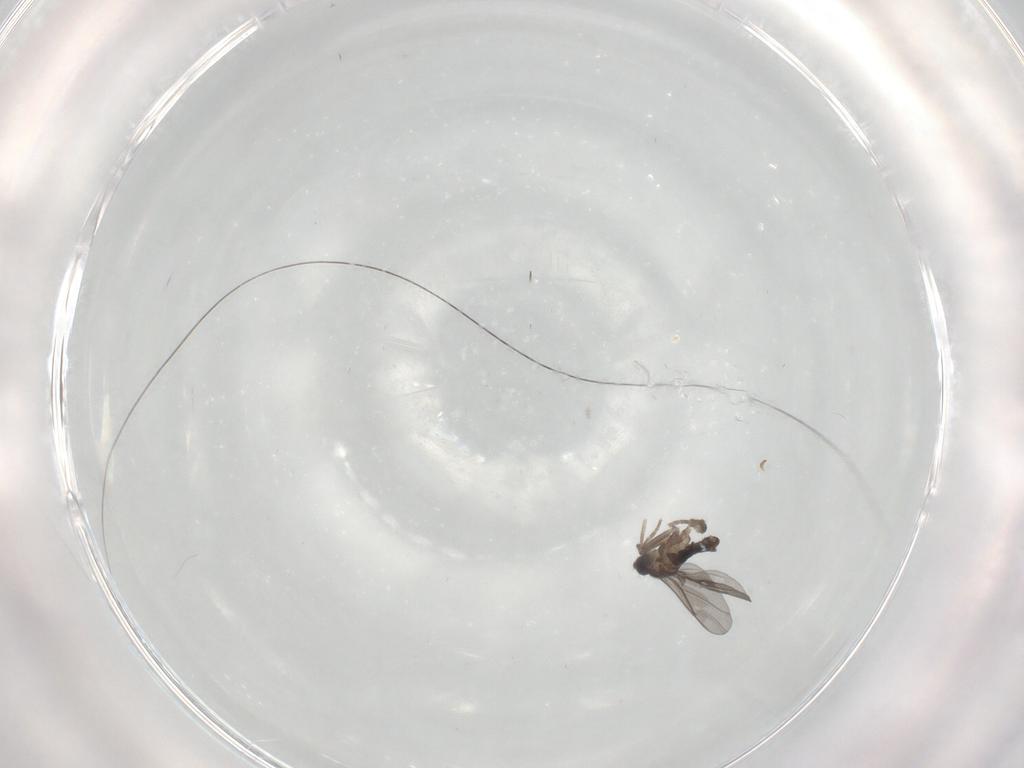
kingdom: Animalia
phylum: Arthropoda
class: Insecta
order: Diptera
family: Phoridae
